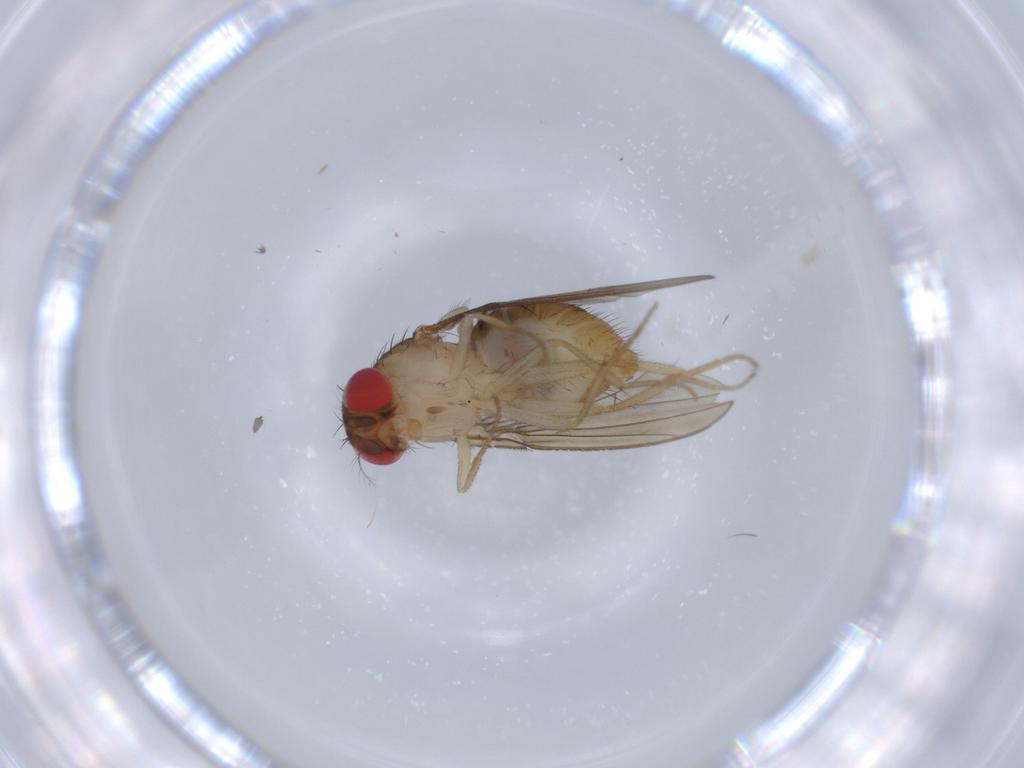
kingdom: Animalia
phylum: Arthropoda
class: Insecta
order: Diptera
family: Drosophilidae
